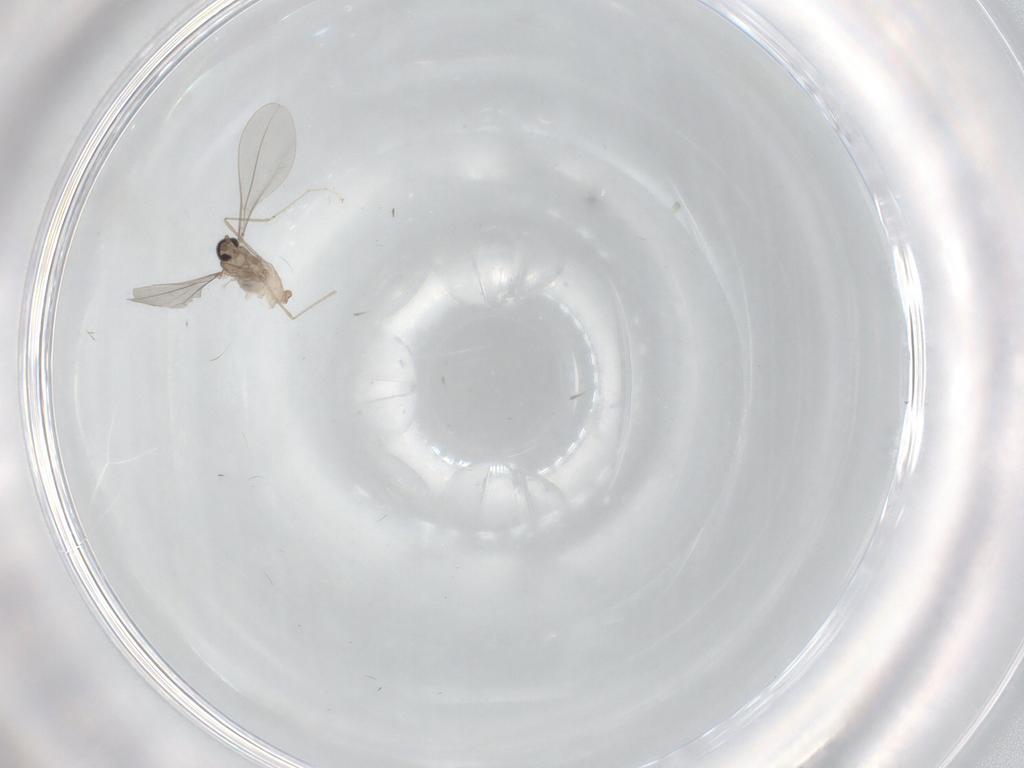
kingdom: Animalia
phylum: Arthropoda
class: Insecta
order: Diptera
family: Cecidomyiidae
